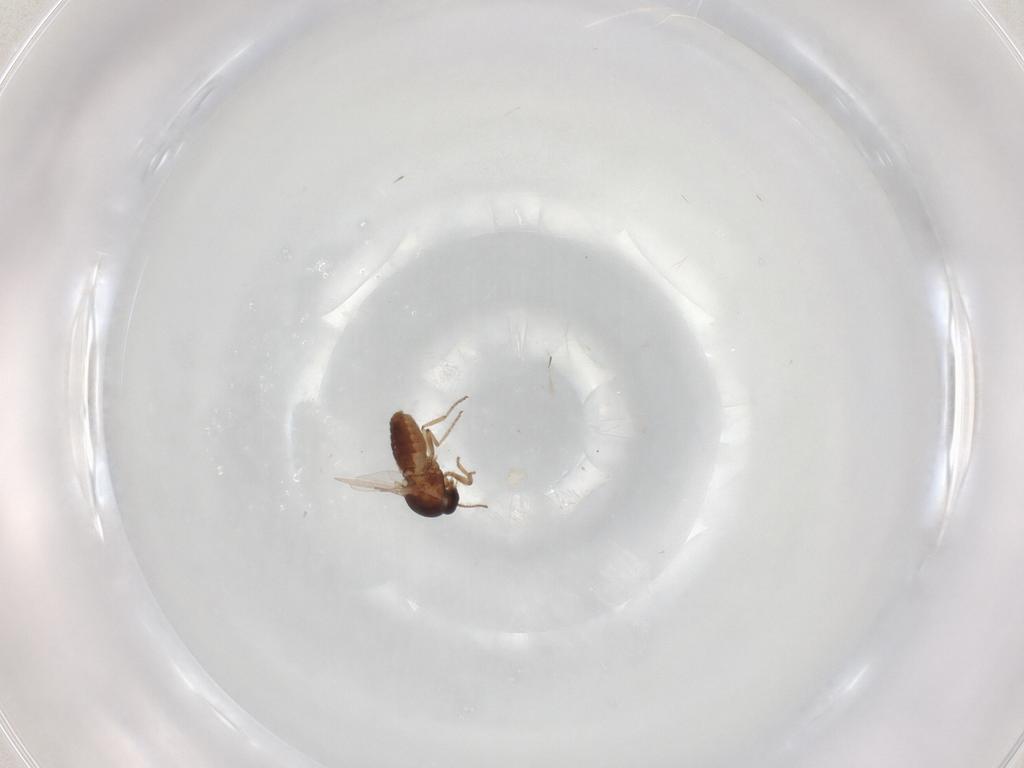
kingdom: Animalia
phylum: Arthropoda
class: Insecta
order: Diptera
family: Ceratopogonidae
